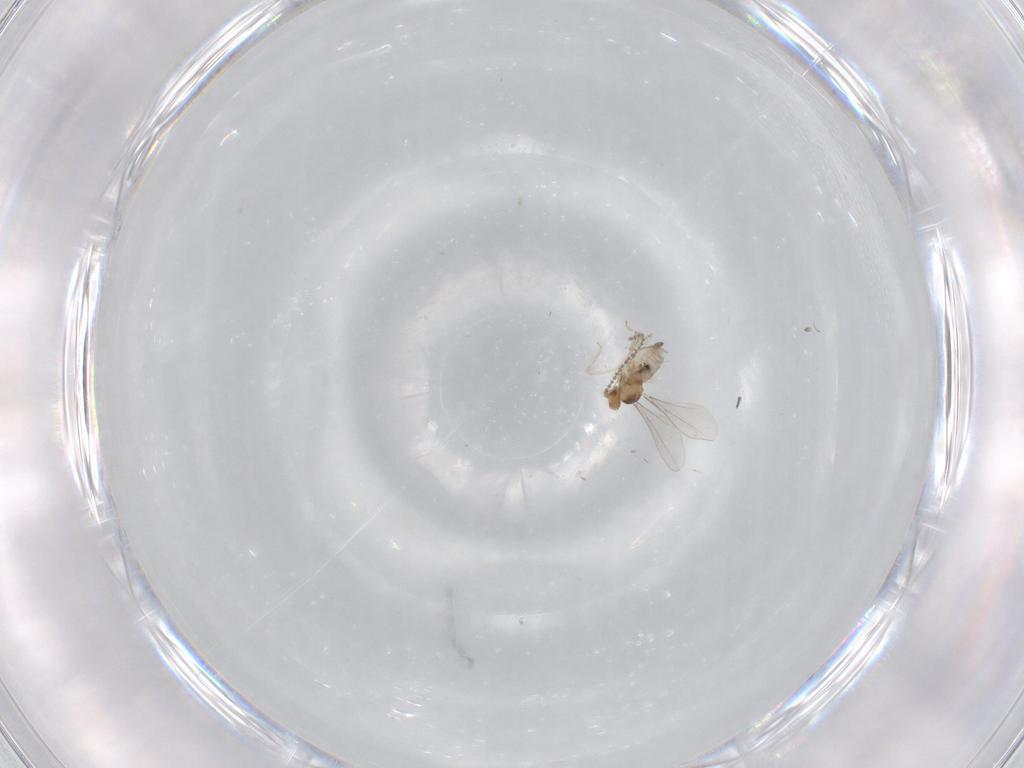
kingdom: Animalia
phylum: Arthropoda
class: Insecta
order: Diptera
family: Cecidomyiidae
